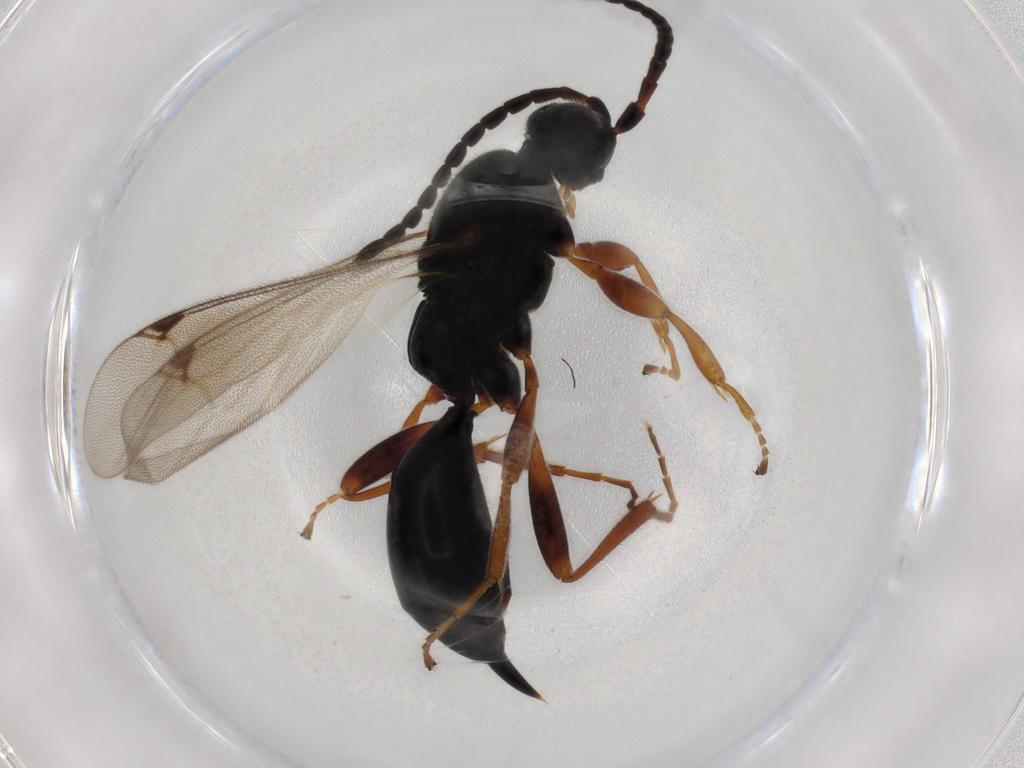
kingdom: Animalia
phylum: Arthropoda
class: Insecta
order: Hymenoptera
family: Proctotrupidae
